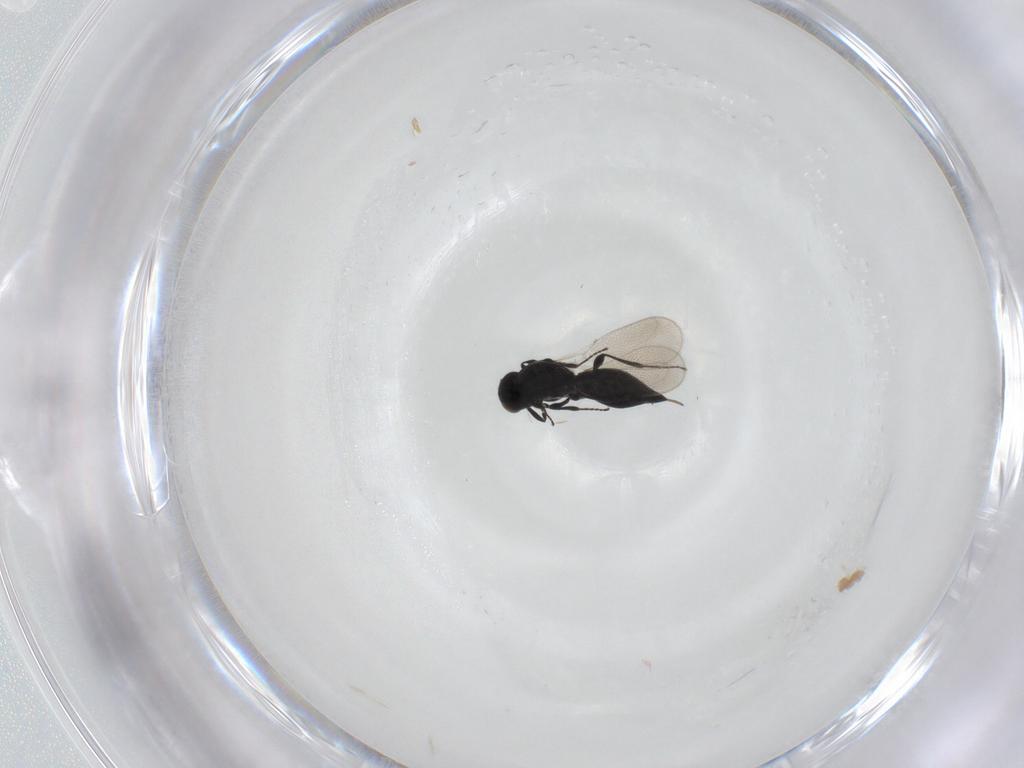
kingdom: Animalia
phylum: Arthropoda
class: Insecta
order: Hymenoptera
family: Platygastridae
